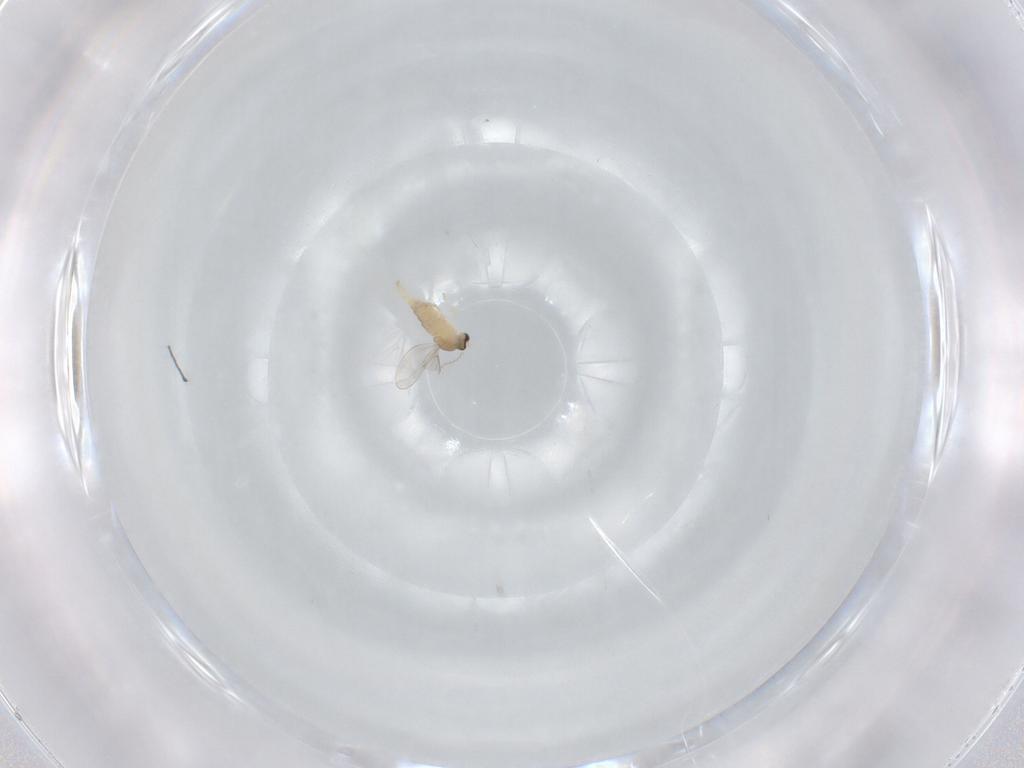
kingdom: Animalia
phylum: Arthropoda
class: Insecta
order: Diptera
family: Cecidomyiidae
